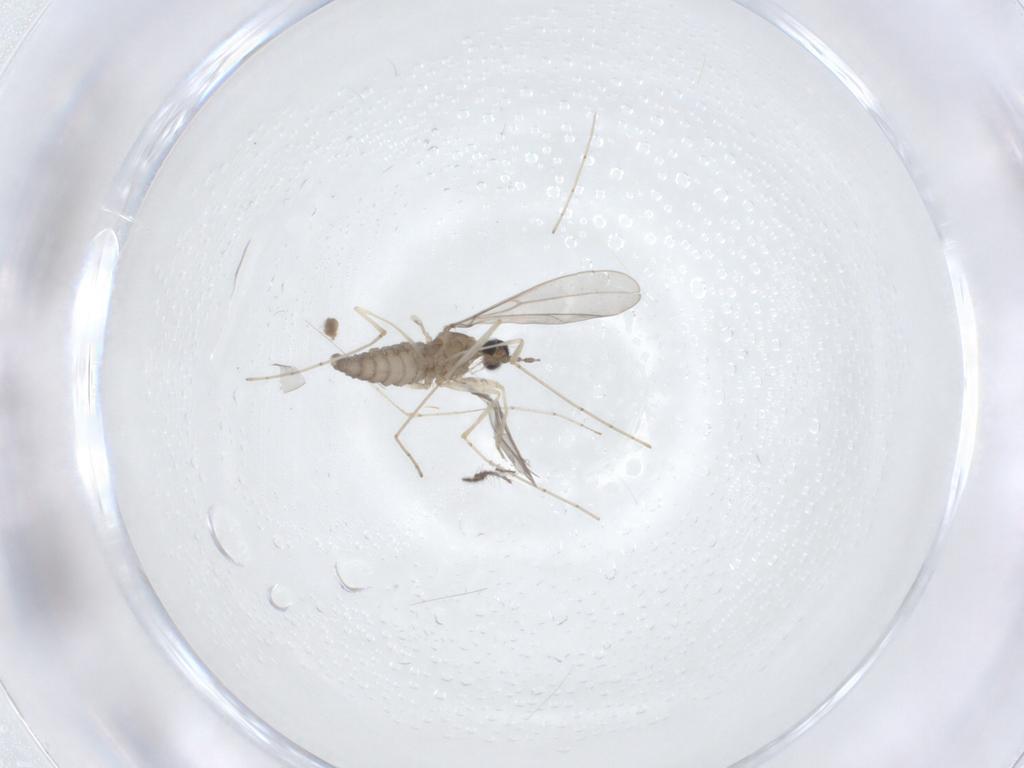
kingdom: Animalia
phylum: Arthropoda
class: Insecta
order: Diptera
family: Cecidomyiidae
